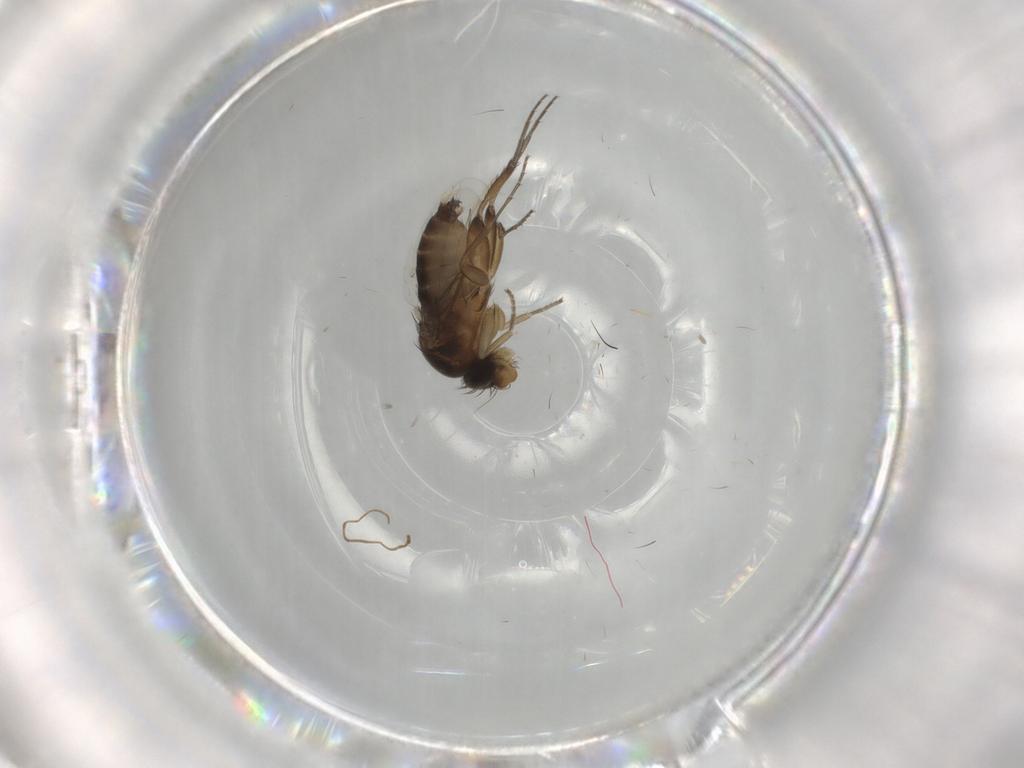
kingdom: Animalia
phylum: Arthropoda
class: Insecta
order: Diptera
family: Phoridae
